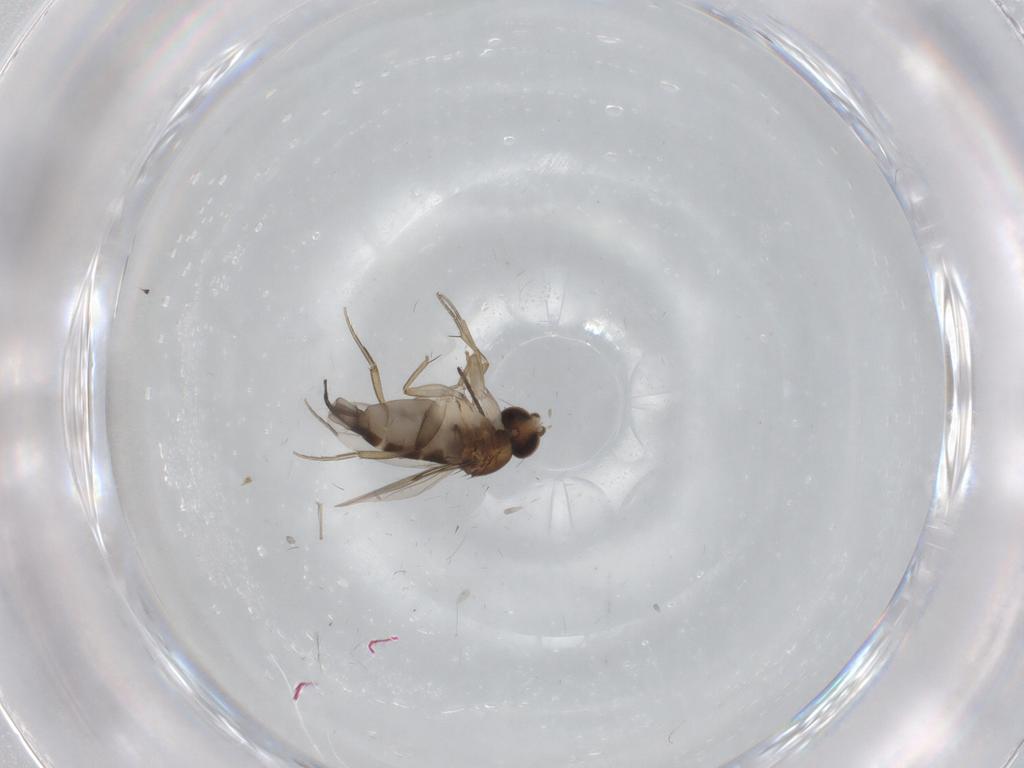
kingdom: Animalia
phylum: Arthropoda
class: Insecta
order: Diptera
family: Phoridae
